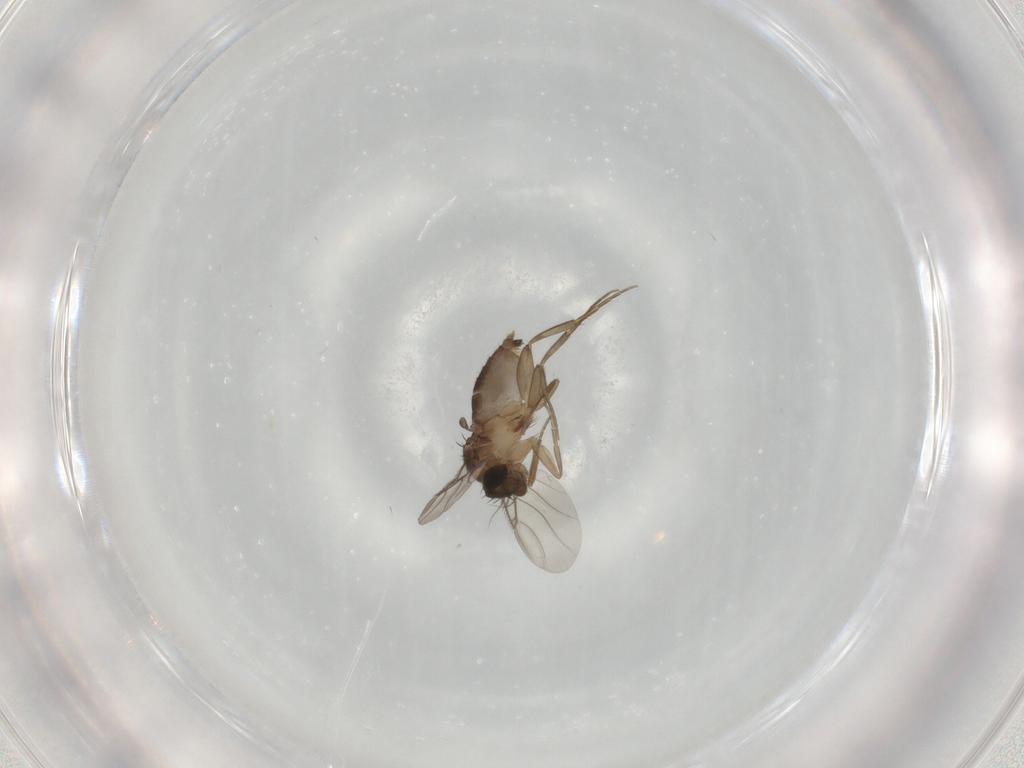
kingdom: Animalia
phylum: Arthropoda
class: Insecta
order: Diptera
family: Phoridae
